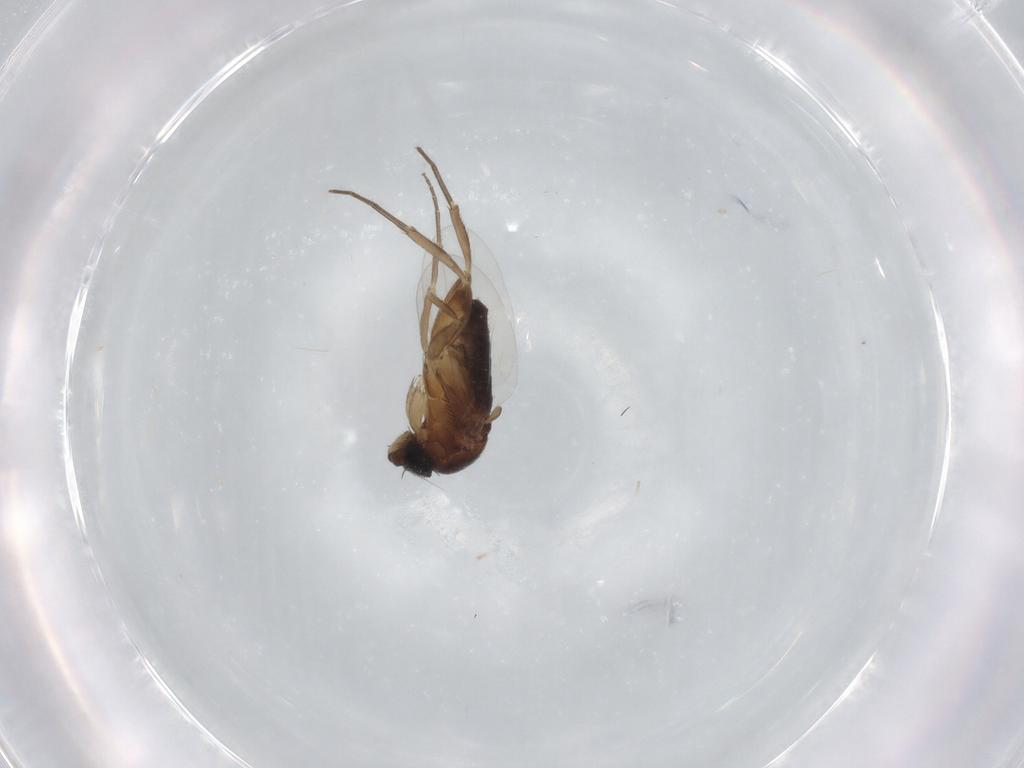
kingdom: Animalia
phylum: Arthropoda
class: Insecta
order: Diptera
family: Phoridae
